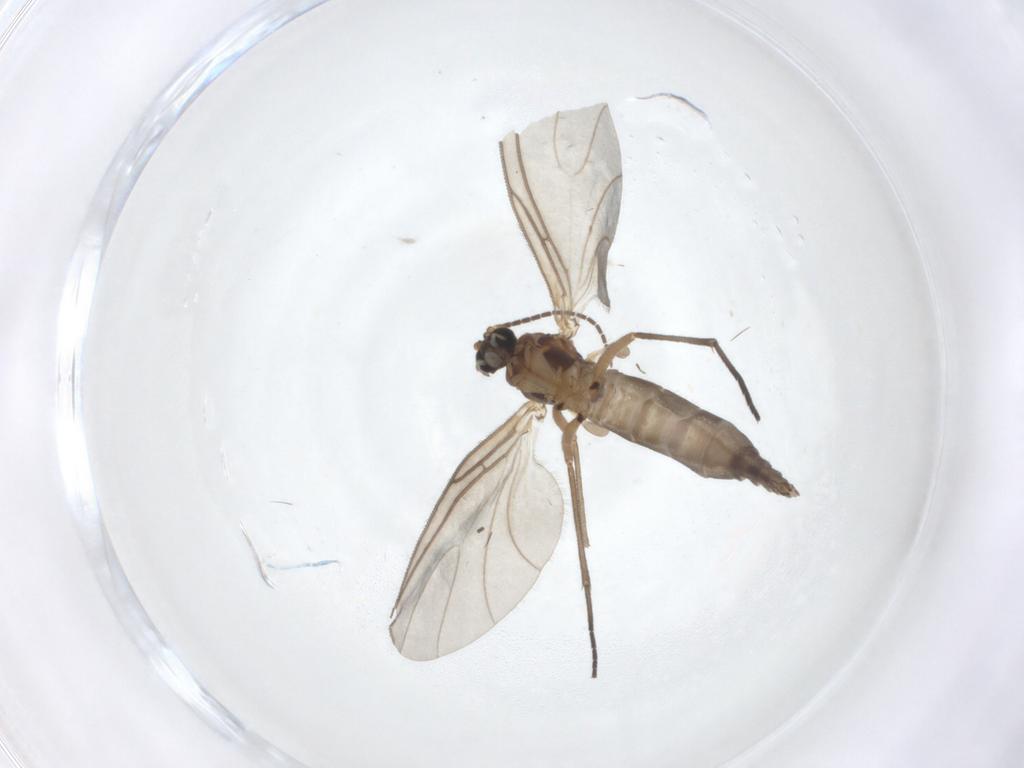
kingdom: Animalia
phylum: Arthropoda
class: Insecta
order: Diptera
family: Sciaridae
